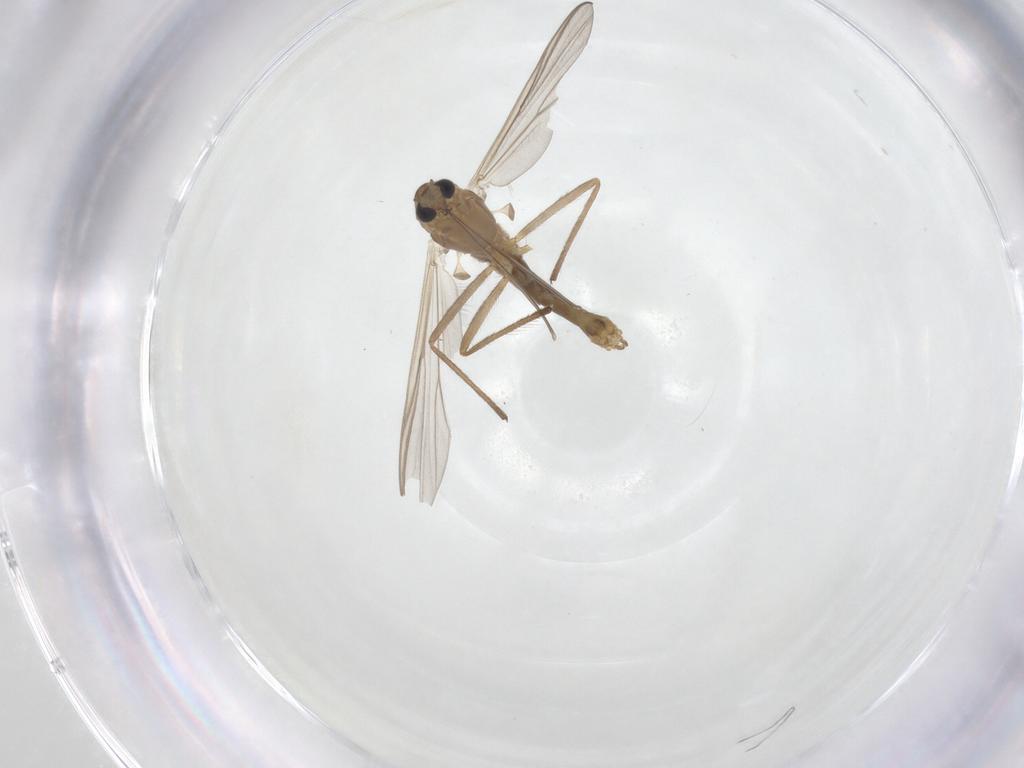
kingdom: Animalia
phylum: Arthropoda
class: Insecta
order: Diptera
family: Chironomidae
